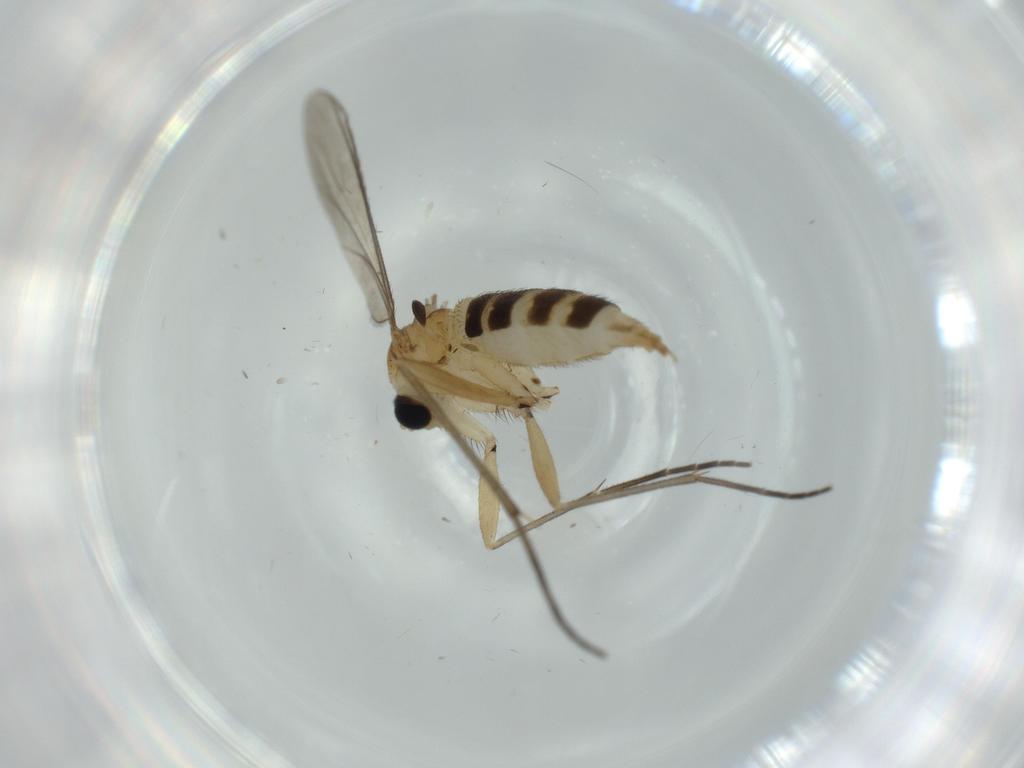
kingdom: Animalia
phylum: Arthropoda
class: Insecta
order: Diptera
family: Sciaridae
